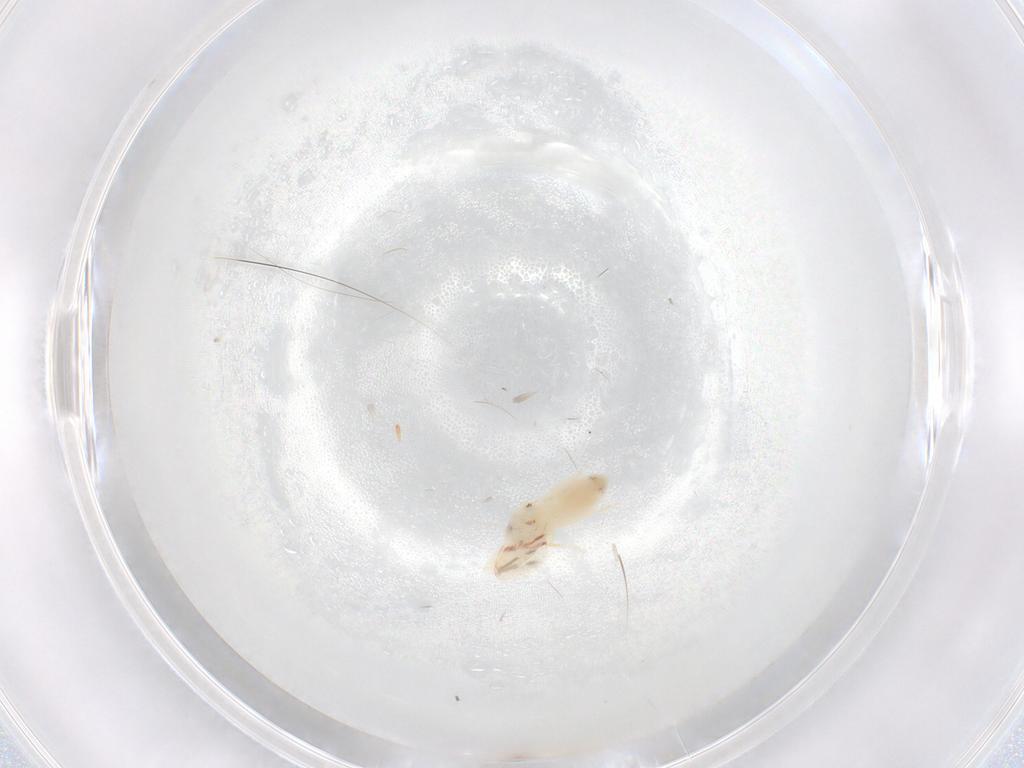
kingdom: Animalia
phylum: Arthropoda
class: Insecta
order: Hemiptera
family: Aleyrodidae
